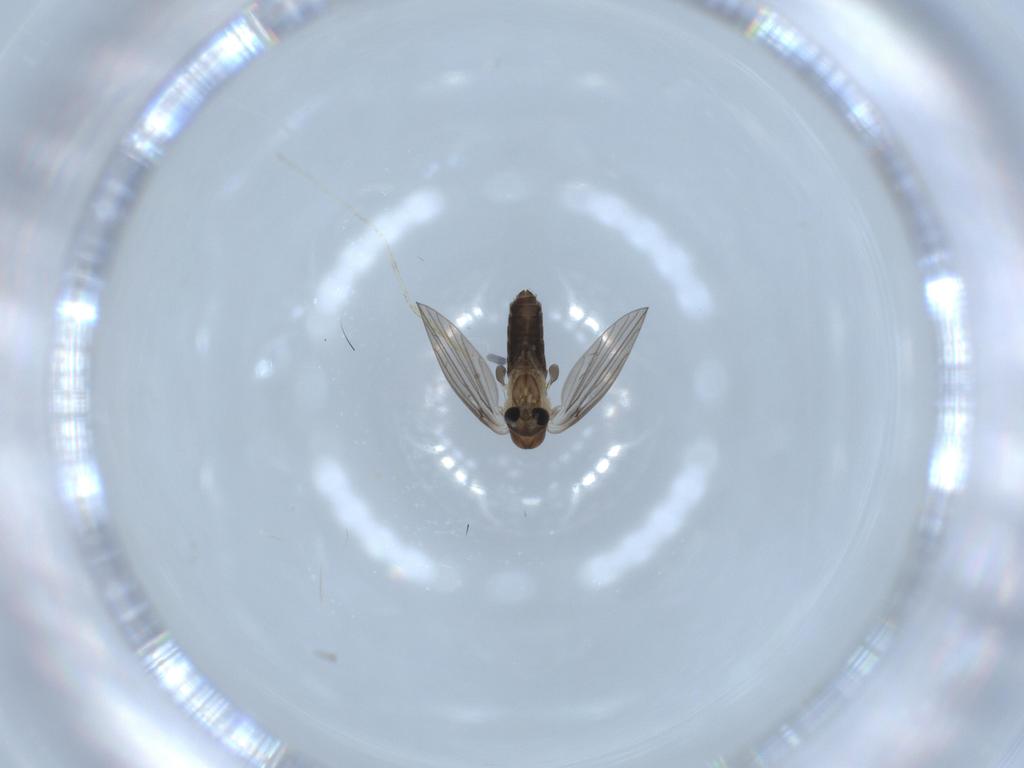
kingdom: Animalia
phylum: Arthropoda
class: Insecta
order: Diptera
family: Psychodidae
